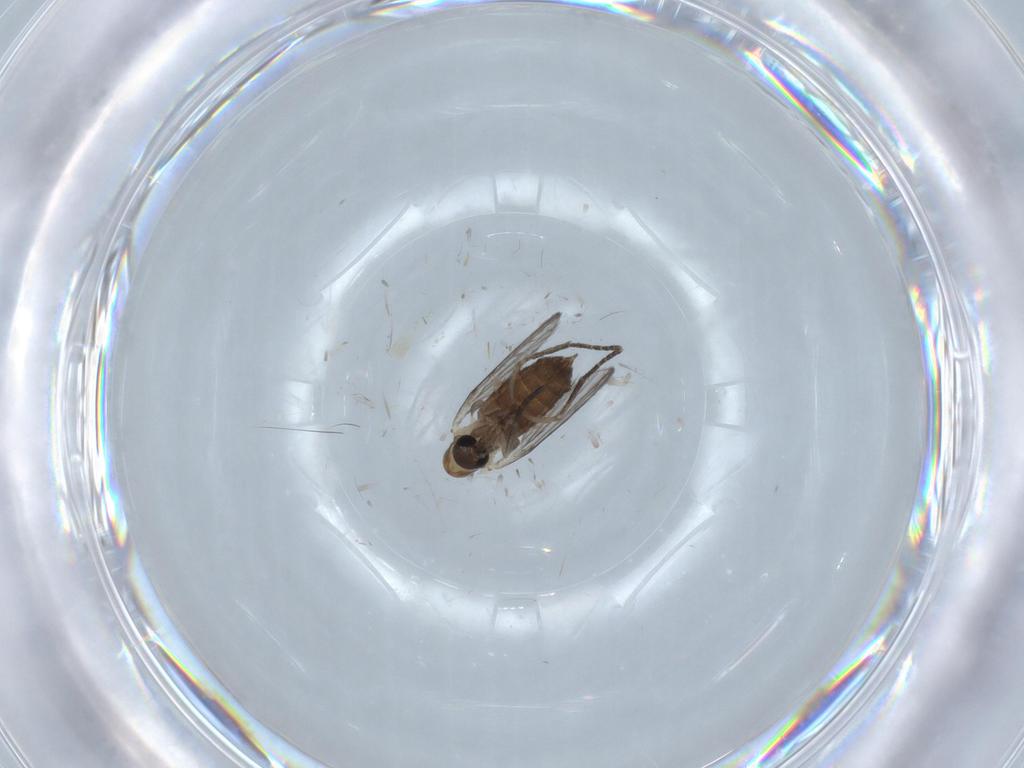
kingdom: Animalia
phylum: Arthropoda
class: Insecta
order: Diptera
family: Psychodidae
